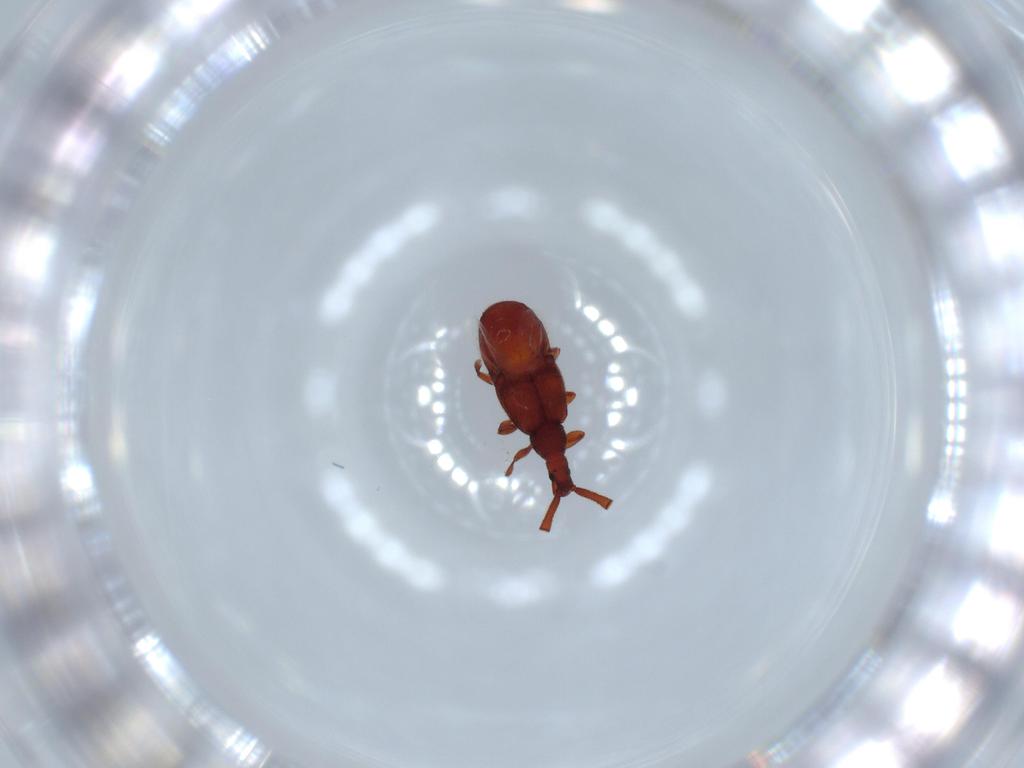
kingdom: Animalia
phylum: Arthropoda
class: Insecta
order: Coleoptera
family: Staphylinidae
